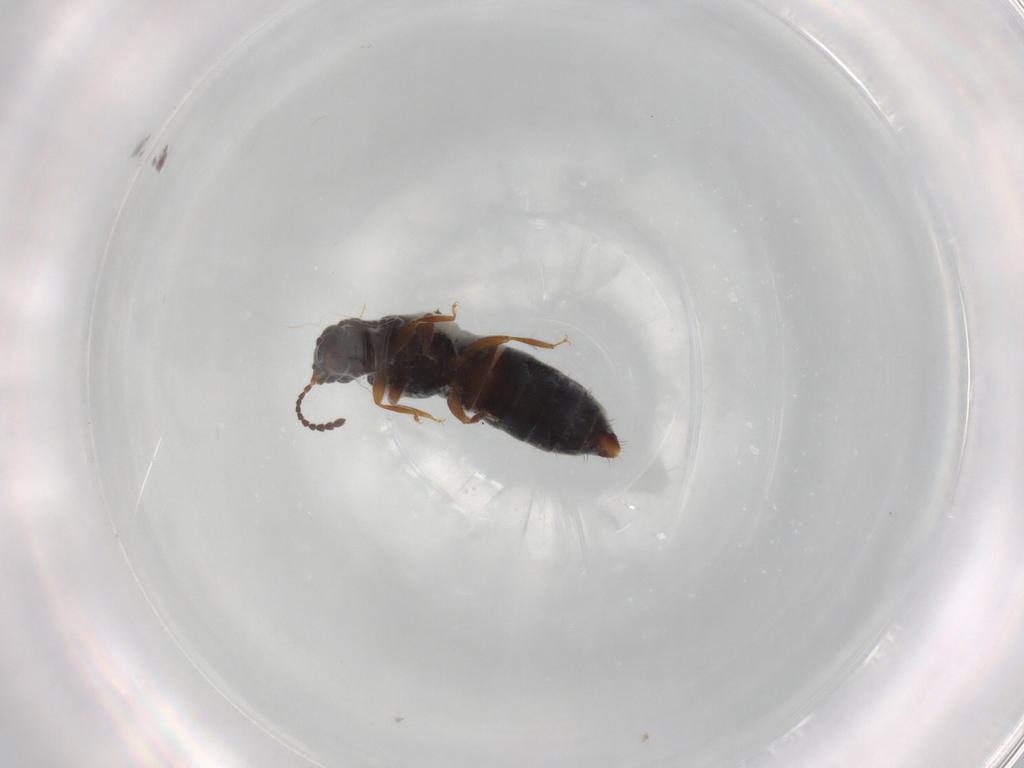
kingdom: Animalia
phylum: Arthropoda
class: Insecta
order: Coleoptera
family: Staphylinidae
